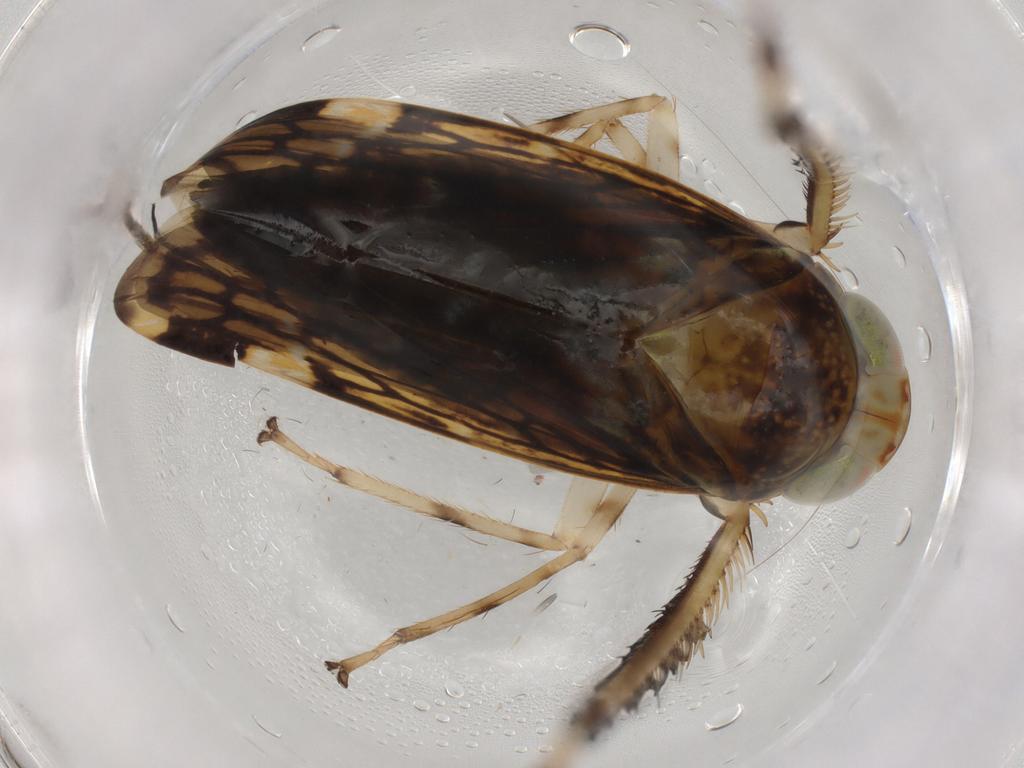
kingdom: Animalia
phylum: Arthropoda
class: Insecta
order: Hemiptera
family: Cicadellidae
